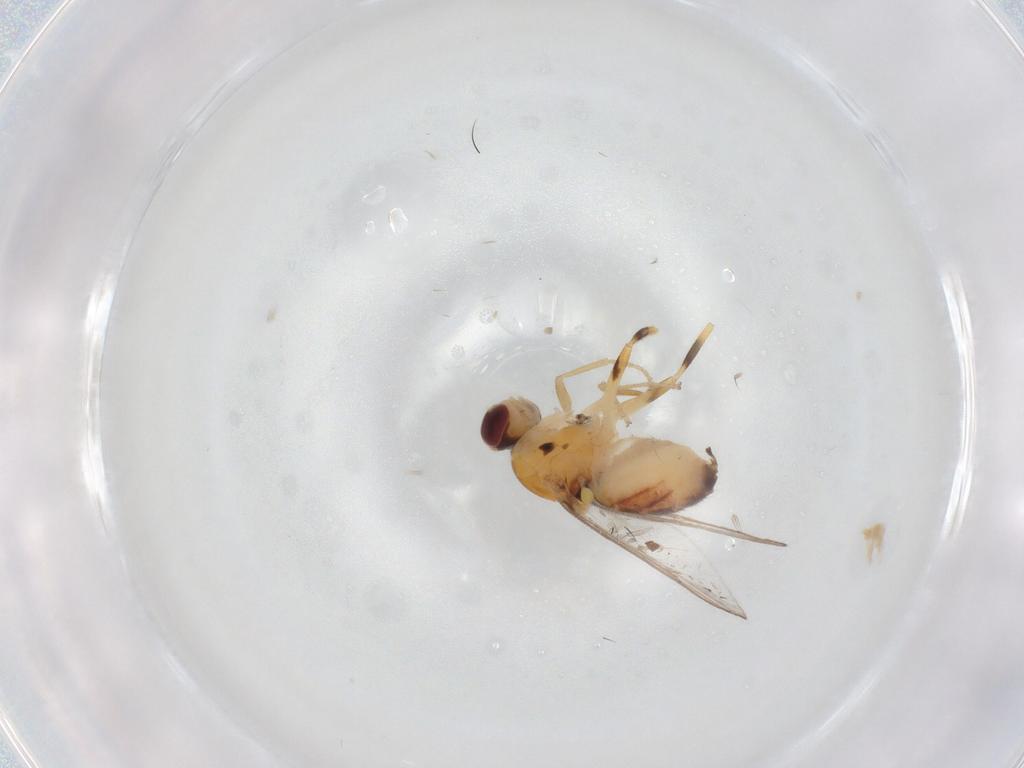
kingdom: Animalia
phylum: Arthropoda
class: Insecta
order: Diptera
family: Chloropidae
